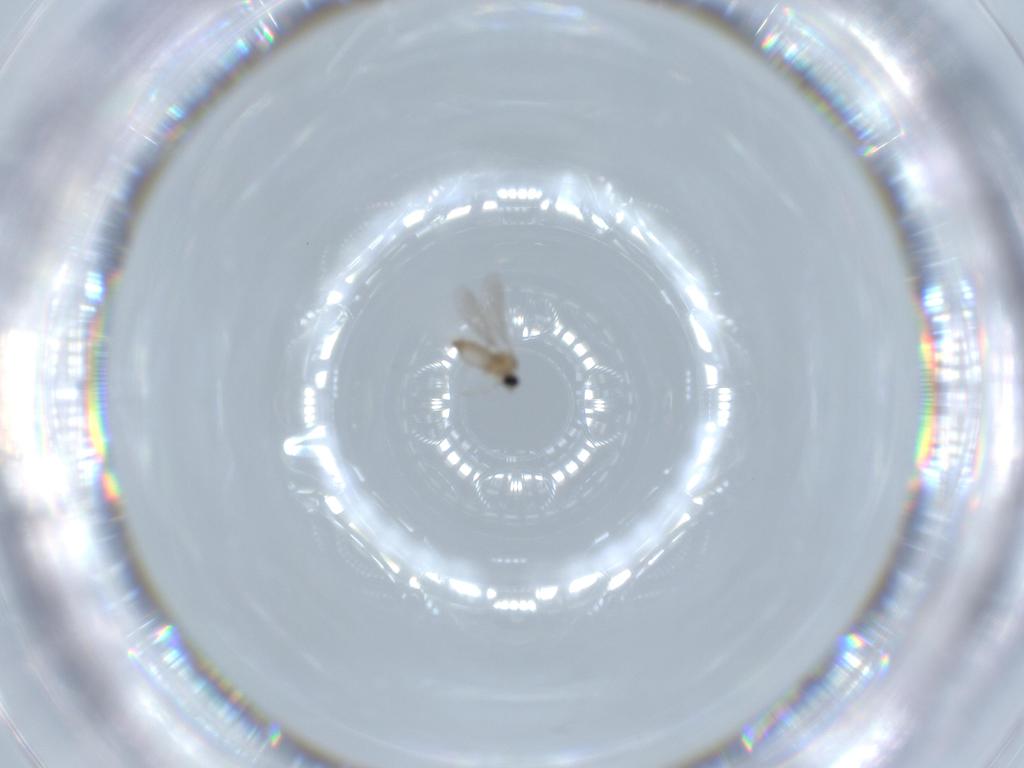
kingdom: Animalia
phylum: Arthropoda
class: Insecta
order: Diptera
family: Cecidomyiidae
